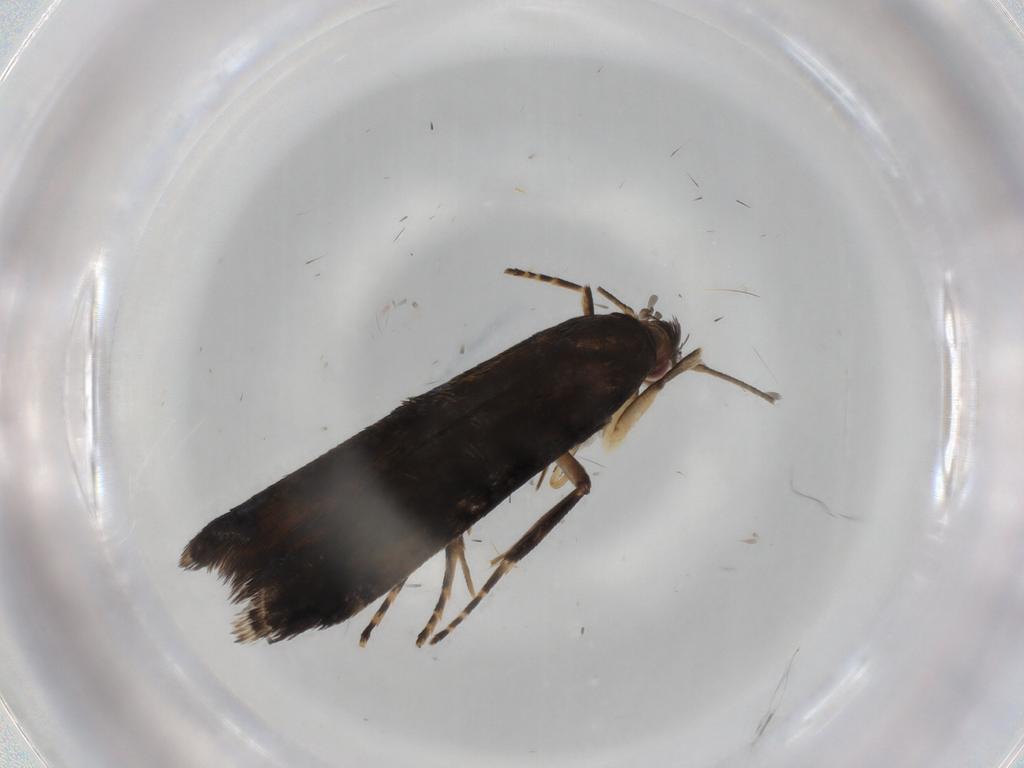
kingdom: Animalia
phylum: Arthropoda
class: Insecta
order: Lepidoptera
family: Gelechiidae
